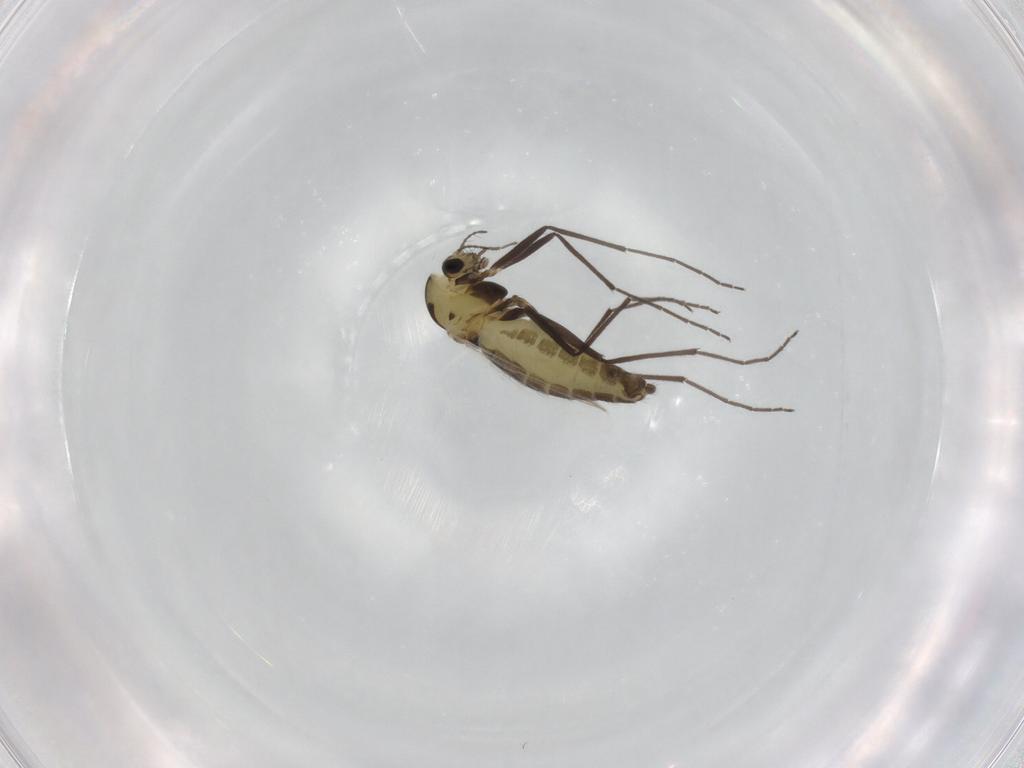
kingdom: Animalia
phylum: Arthropoda
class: Insecta
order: Diptera
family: Chironomidae
